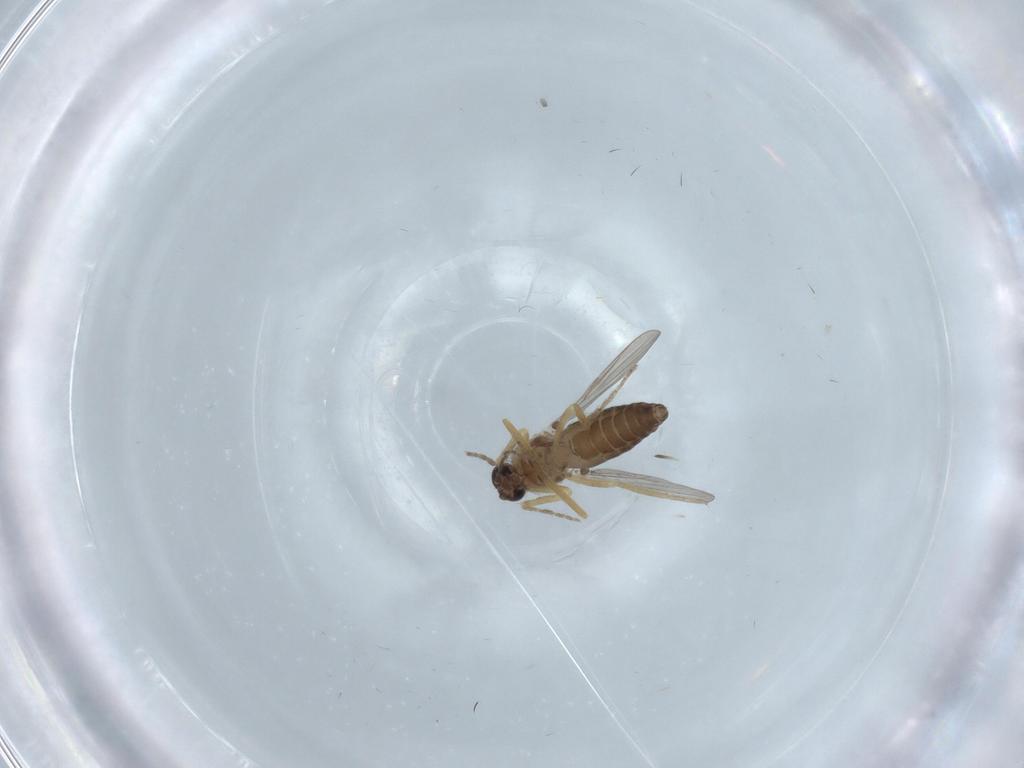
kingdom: Animalia
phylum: Arthropoda
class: Insecta
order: Diptera
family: Ceratopogonidae
